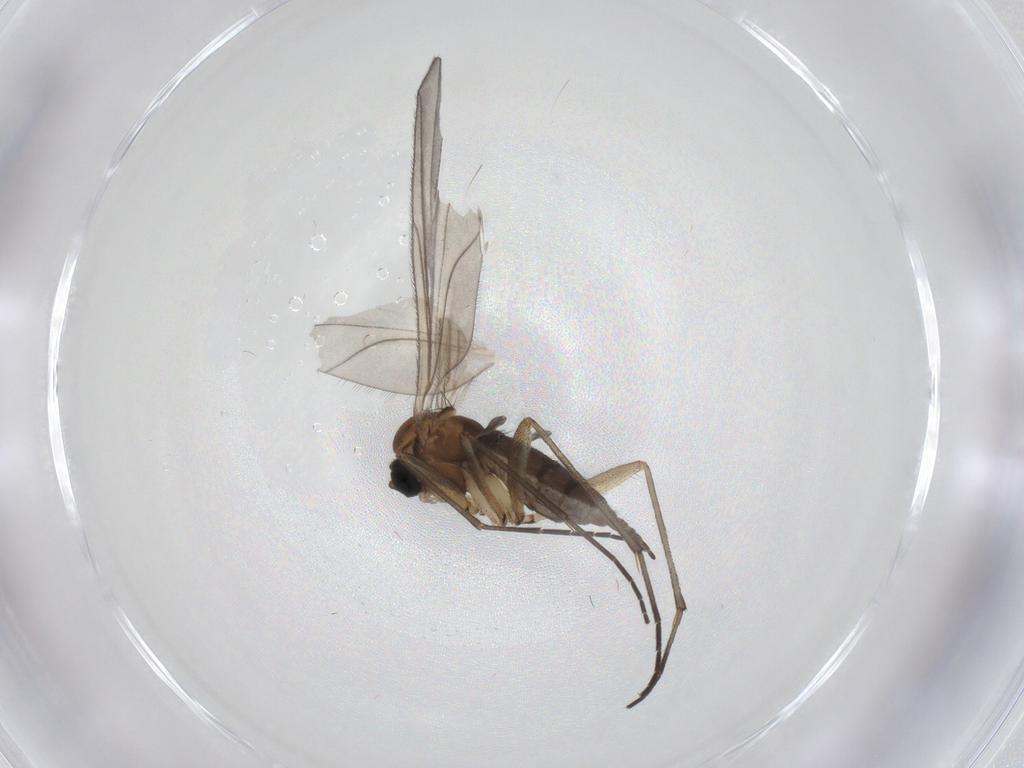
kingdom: Animalia
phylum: Arthropoda
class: Insecta
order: Diptera
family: Sciaridae
